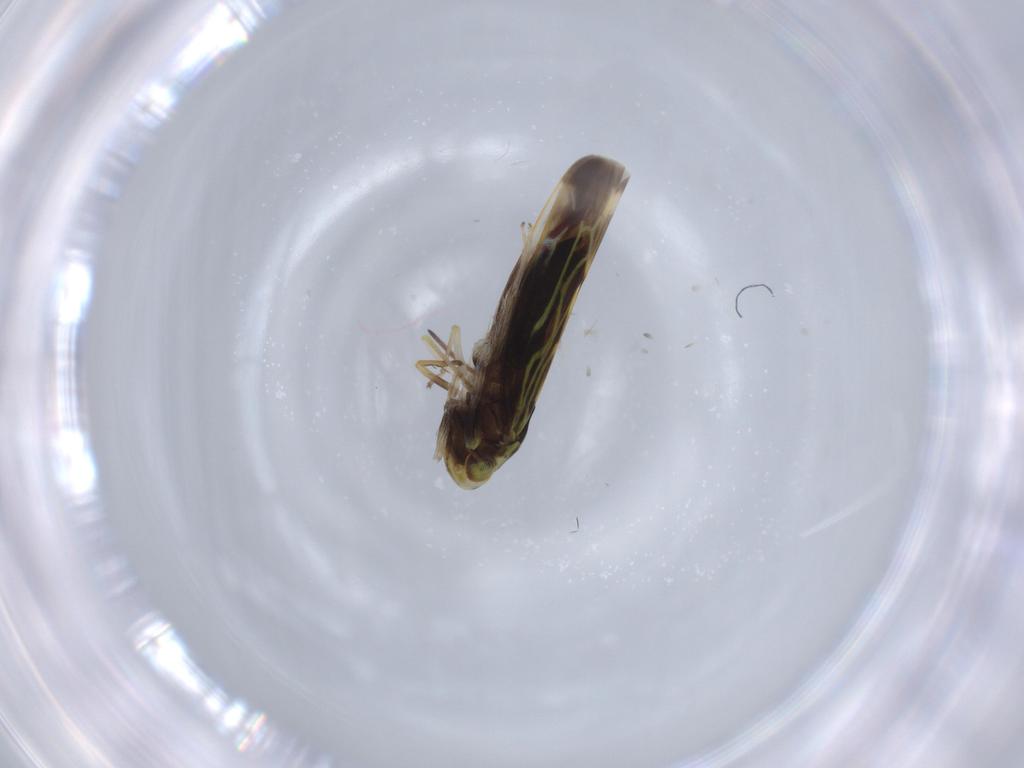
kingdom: Animalia
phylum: Arthropoda
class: Insecta
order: Hemiptera
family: Cicadellidae
